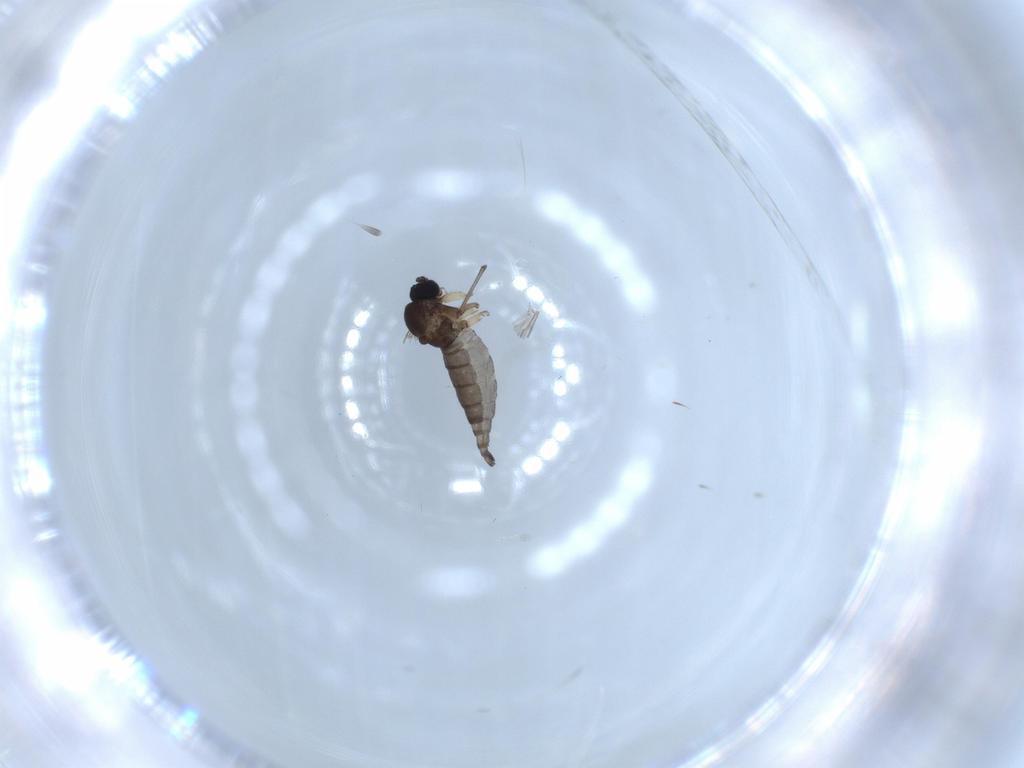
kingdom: Animalia
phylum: Arthropoda
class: Insecta
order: Diptera
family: Sciaridae
